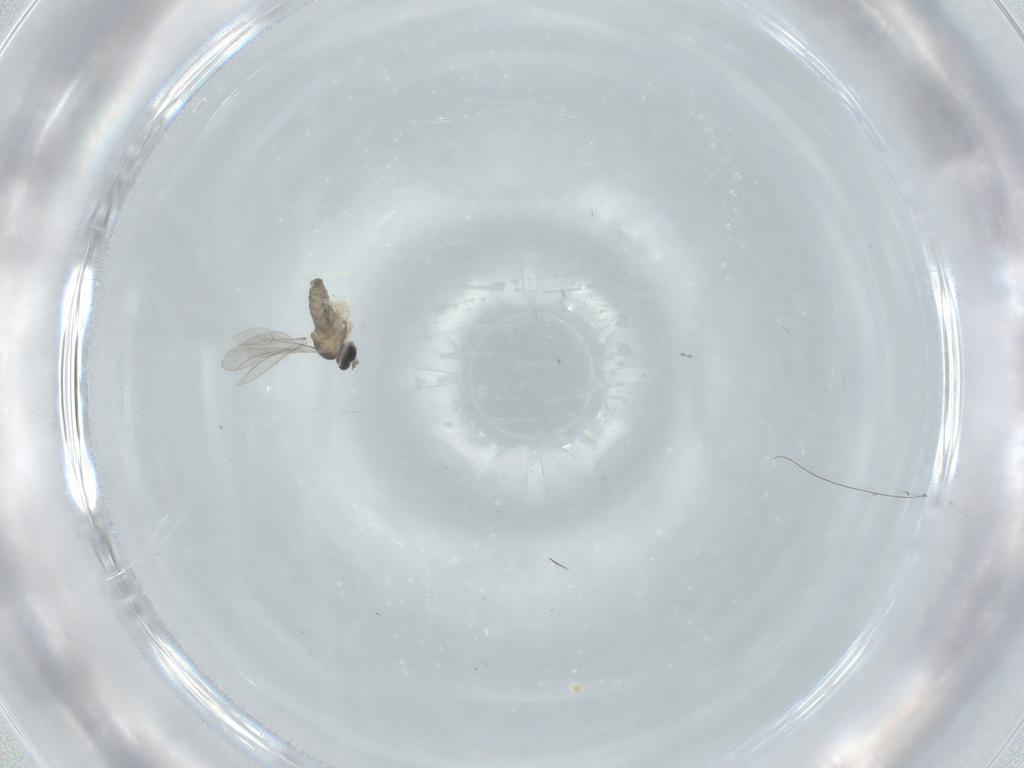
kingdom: Animalia
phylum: Arthropoda
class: Insecta
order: Diptera
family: Cecidomyiidae
